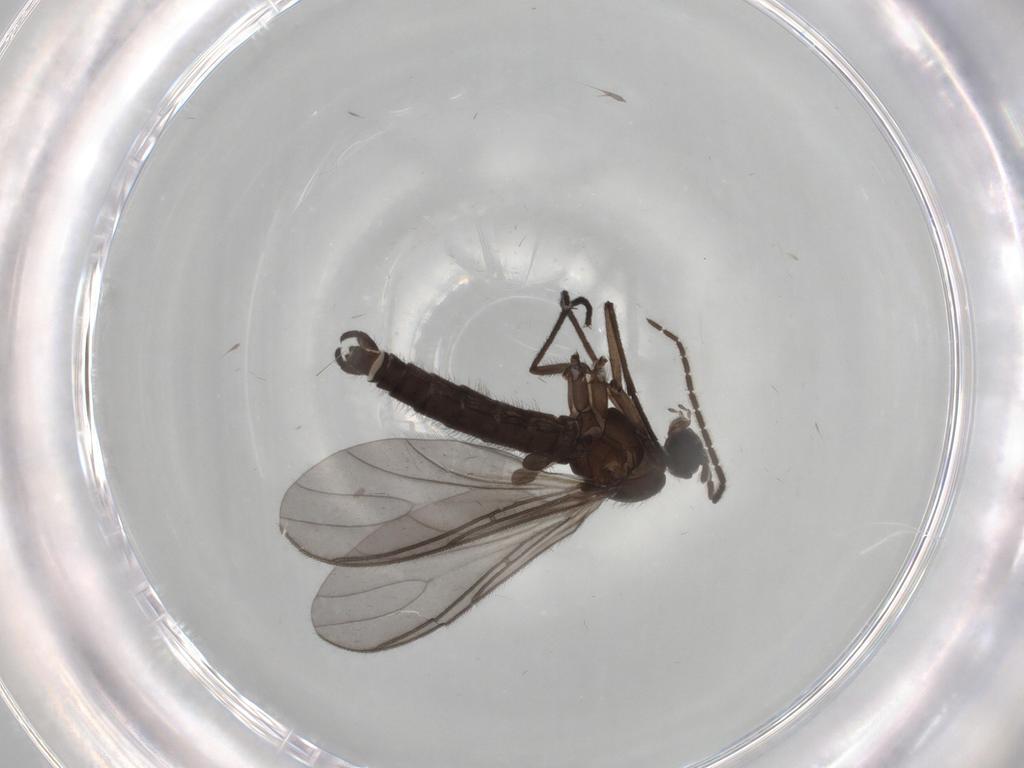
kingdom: Animalia
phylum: Arthropoda
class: Insecta
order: Diptera
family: Sciaridae
